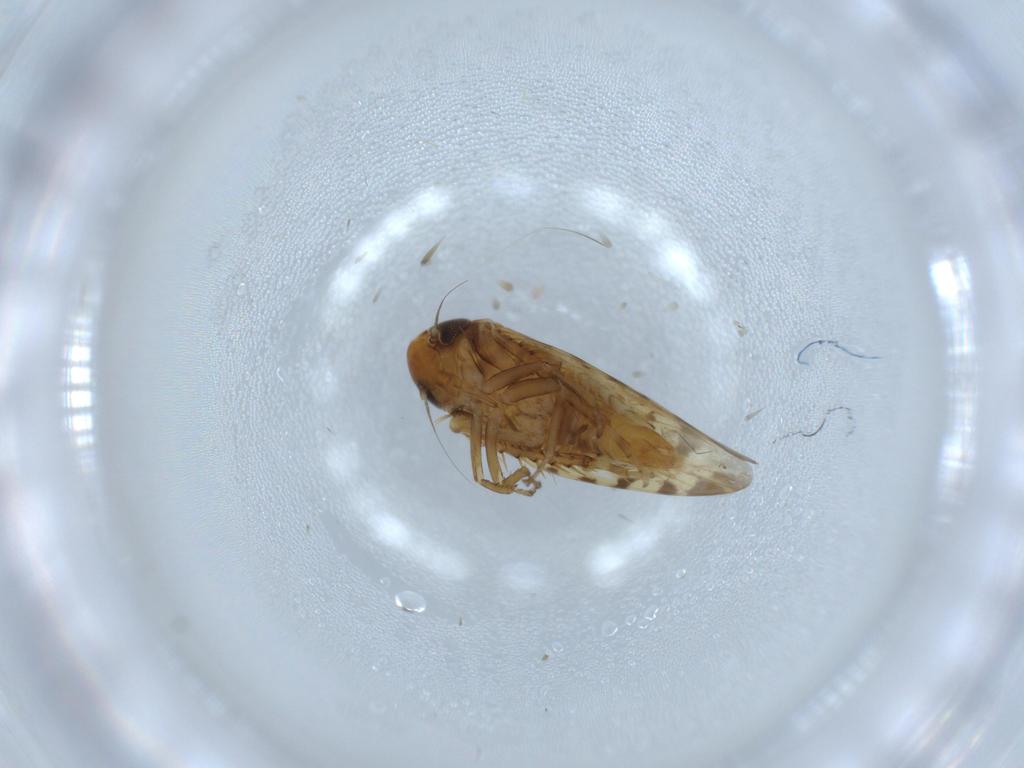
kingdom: Animalia
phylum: Arthropoda
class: Insecta
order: Hemiptera
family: Cicadellidae
